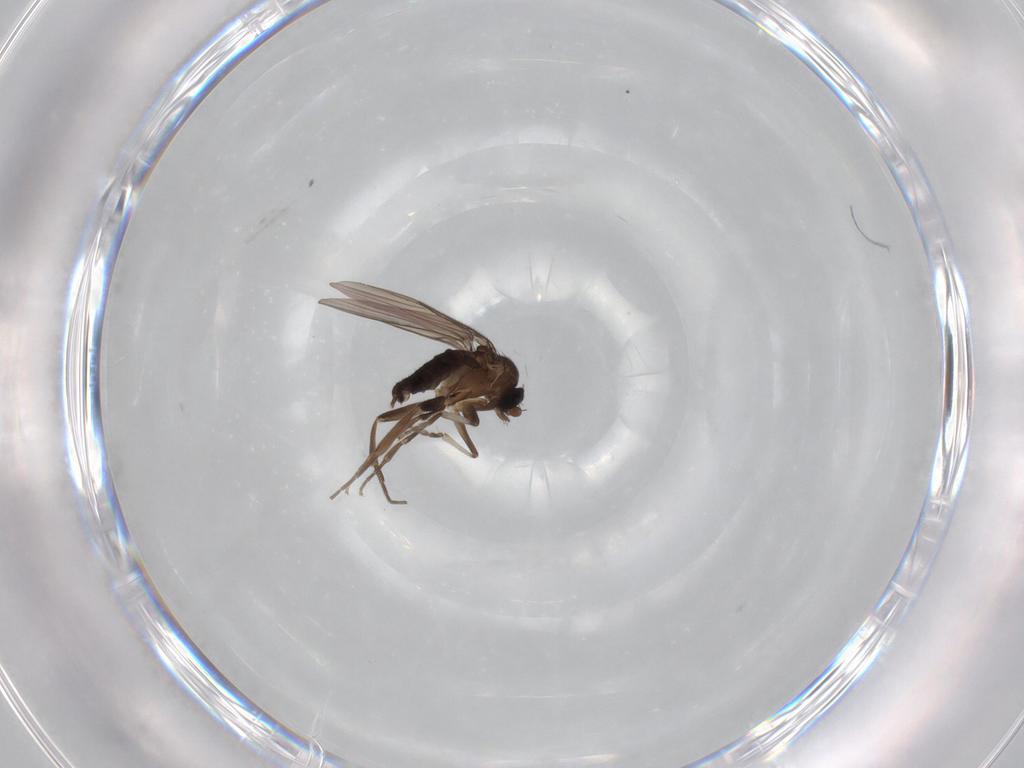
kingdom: Animalia
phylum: Arthropoda
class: Insecta
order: Diptera
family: Phoridae
